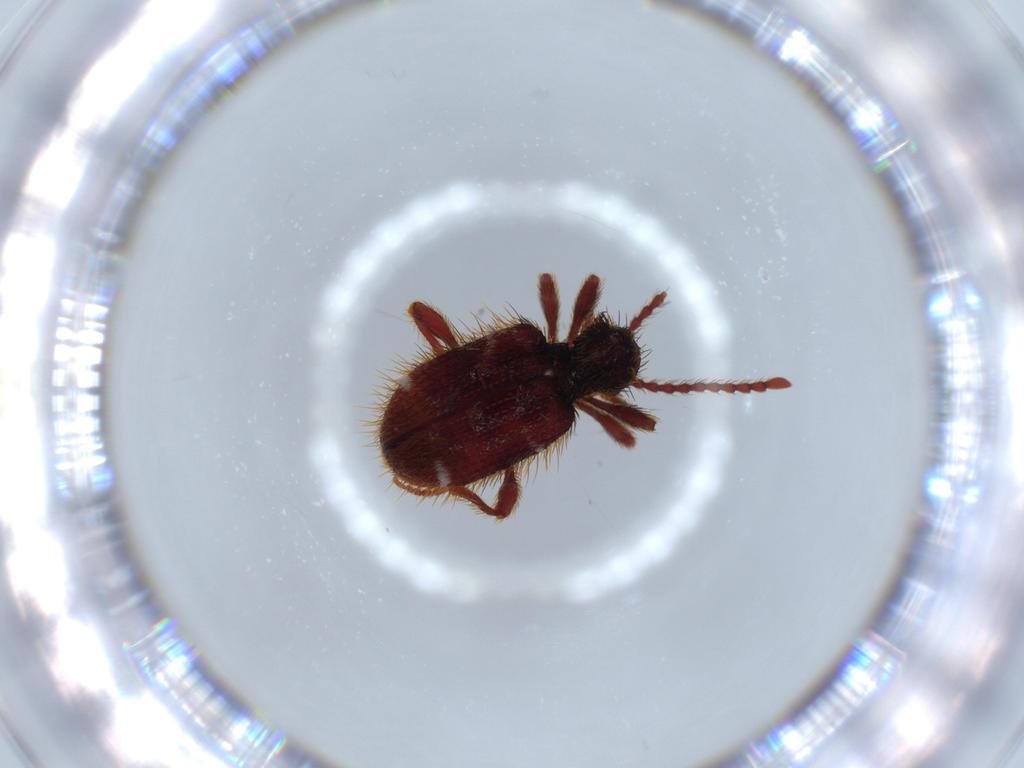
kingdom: Animalia
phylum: Arthropoda
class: Insecta
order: Coleoptera
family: Ptinidae
